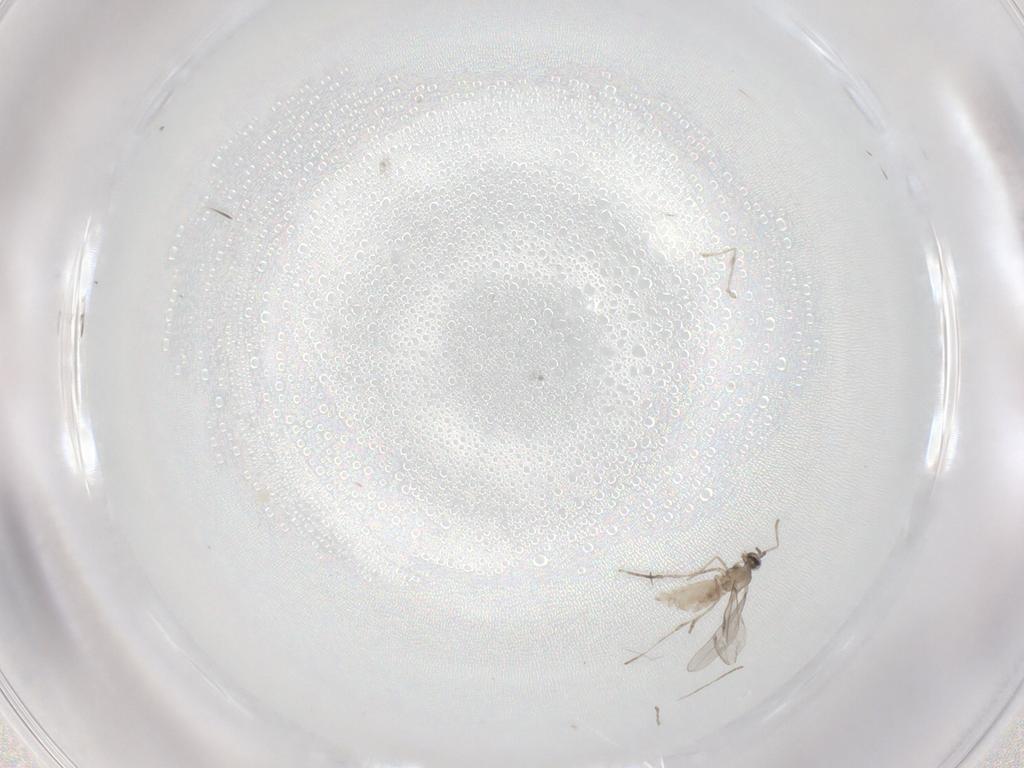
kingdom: Animalia
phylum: Arthropoda
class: Insecta
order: Diptera
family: Cecidomyiidae
